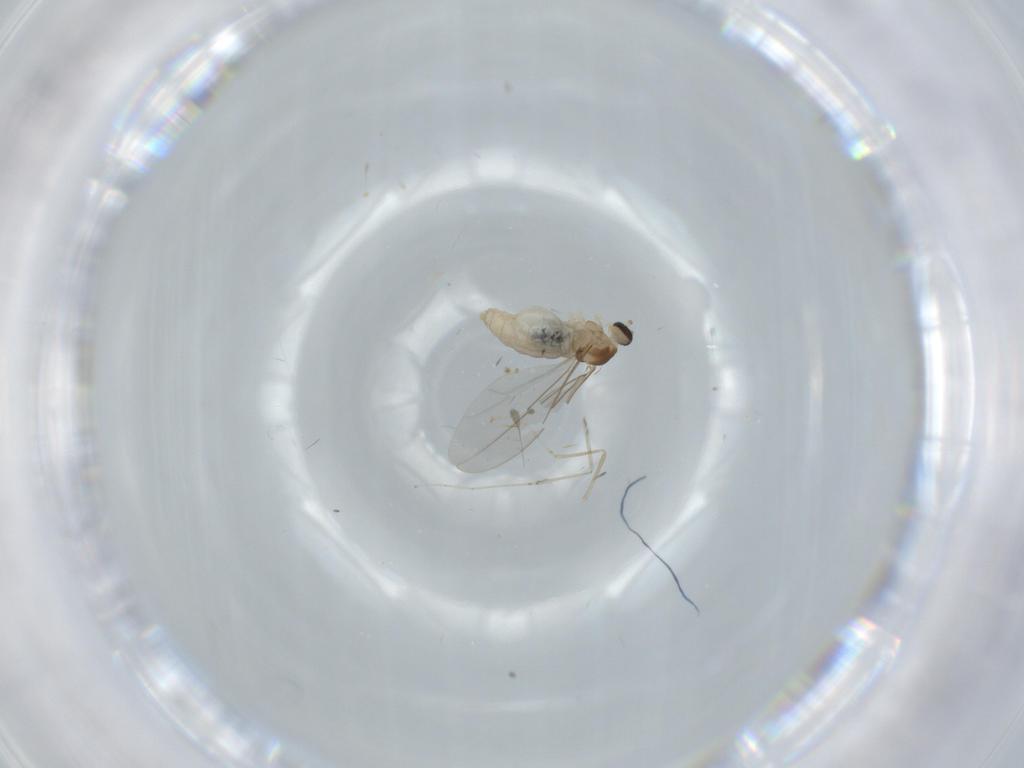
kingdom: Animalia
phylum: Arthropoda
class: Insecta
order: Diptera
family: Cecidomyiidae
